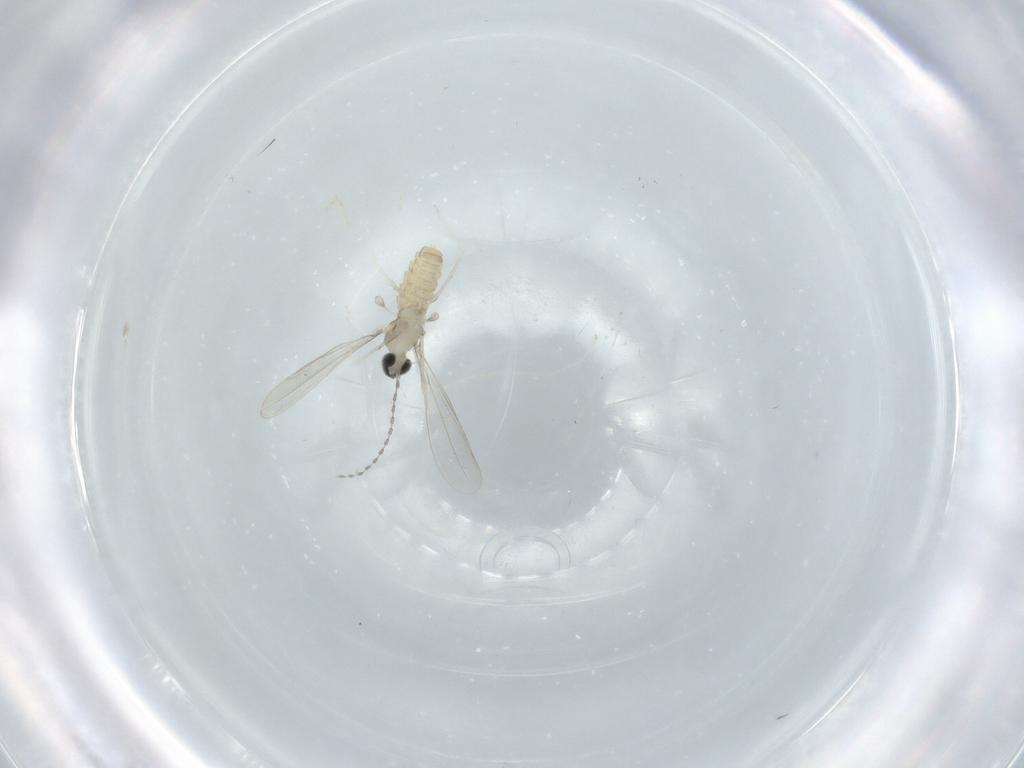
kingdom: Animalia
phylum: Arthropoda
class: Insecta
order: Diptera
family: Cecidomyiidae
